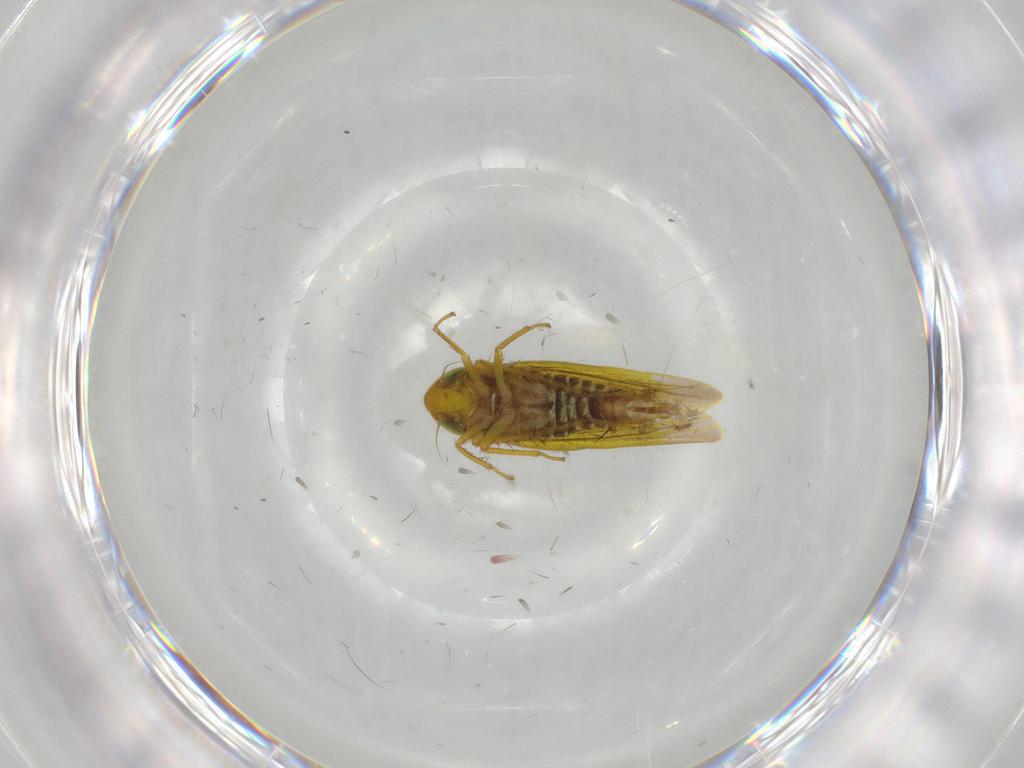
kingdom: Animalia
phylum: Arthropoda
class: Insecta
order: Hemiptera
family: Cicadellidae
